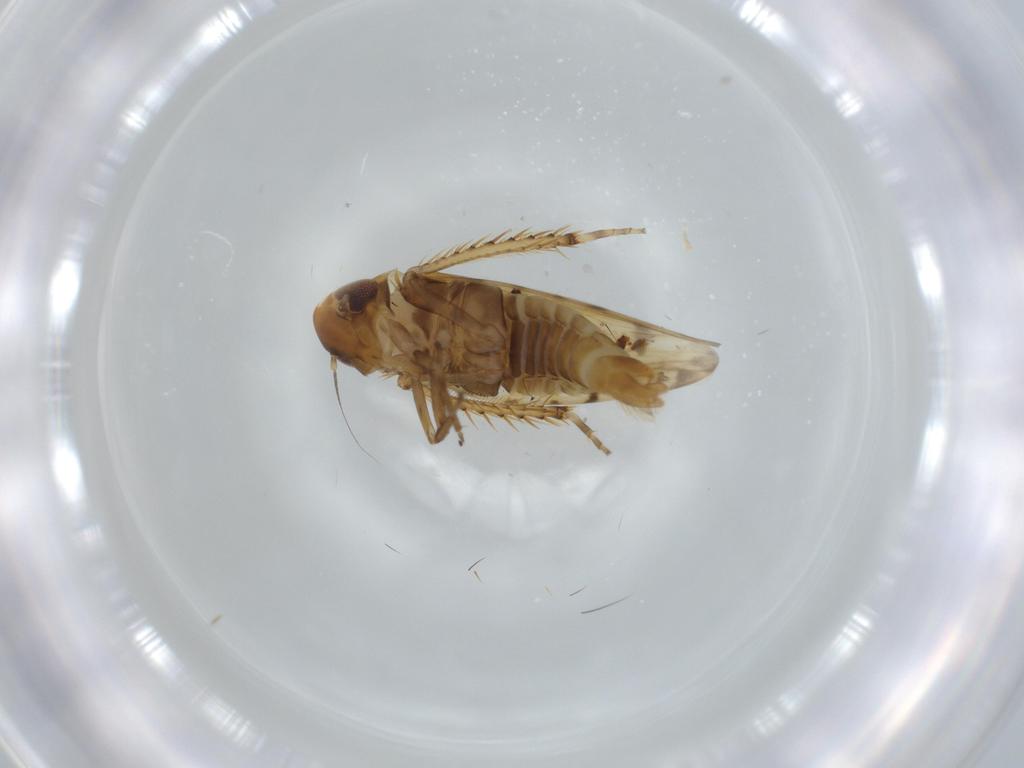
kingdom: Animalia
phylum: Arthropoda
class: Insecta
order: Hemiptera
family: Cicadellidae
